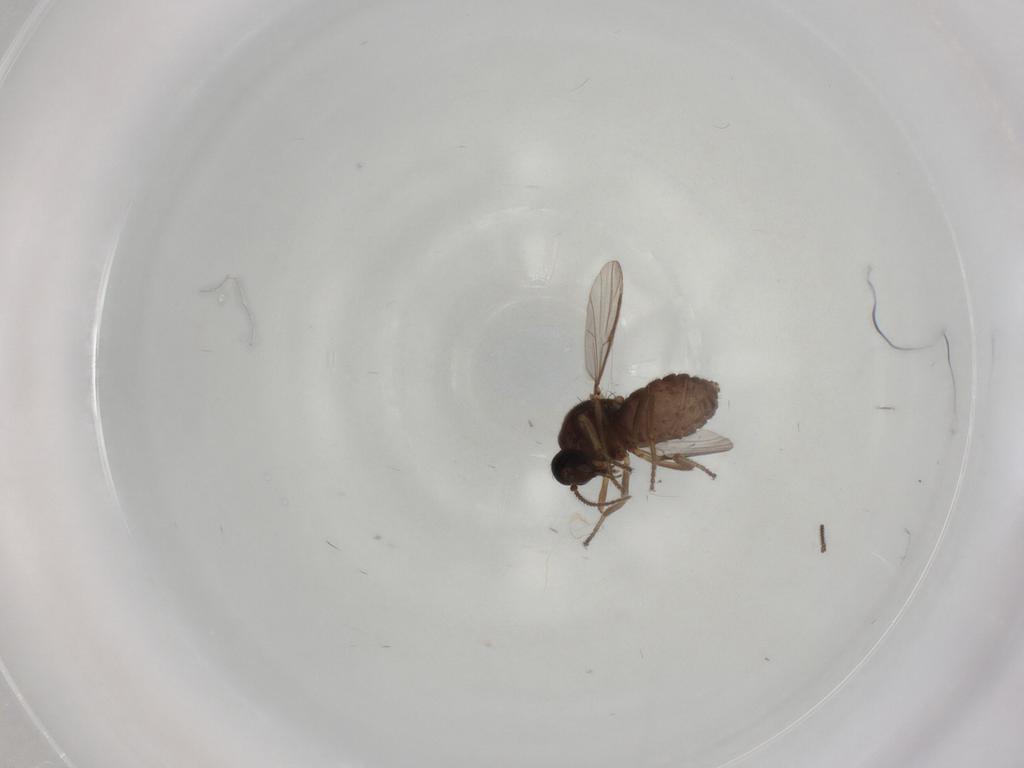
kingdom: Animalia
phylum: Arthropoda
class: Insecta
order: Diptera
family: Ceratopogonidae
